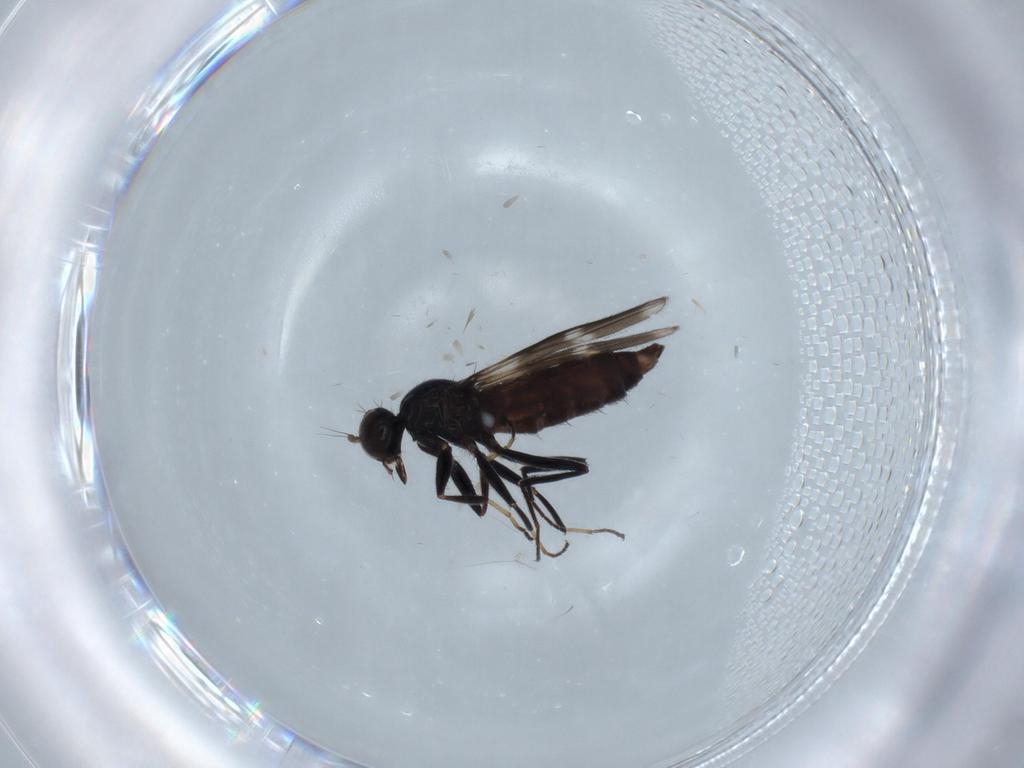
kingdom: Animalia
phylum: Arthropoda
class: Insecta
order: Diptera
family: Hybotidae
